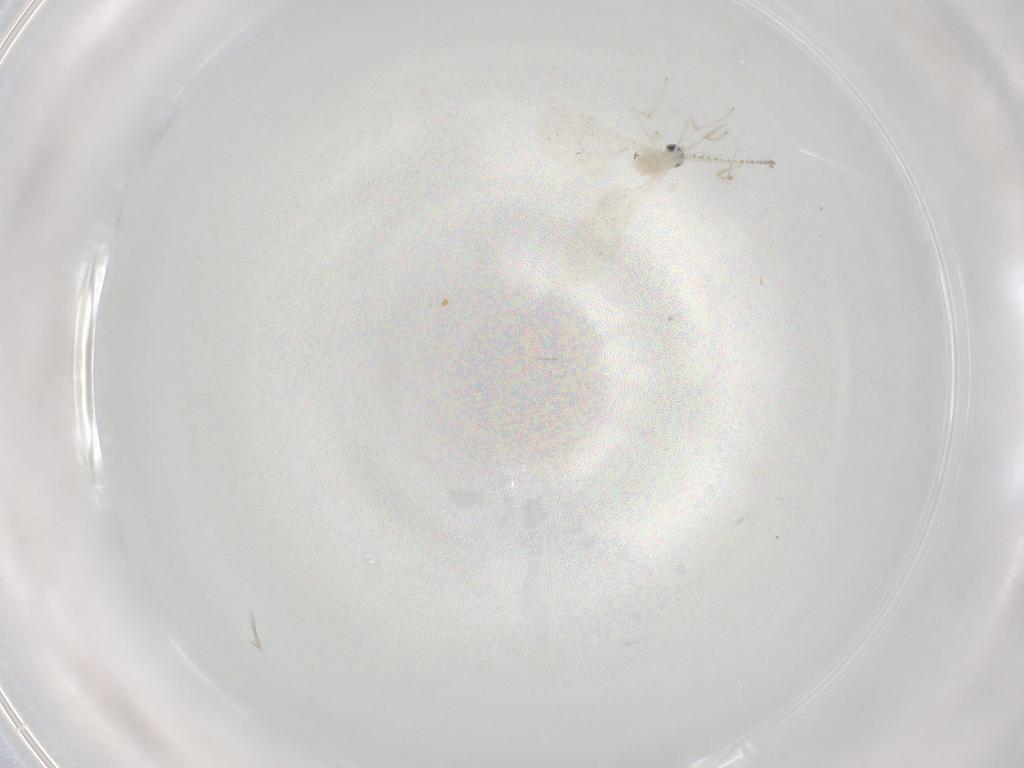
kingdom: Animalia
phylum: Arthropoda
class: Insecta
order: Diptera
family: Cecidomyiidae
